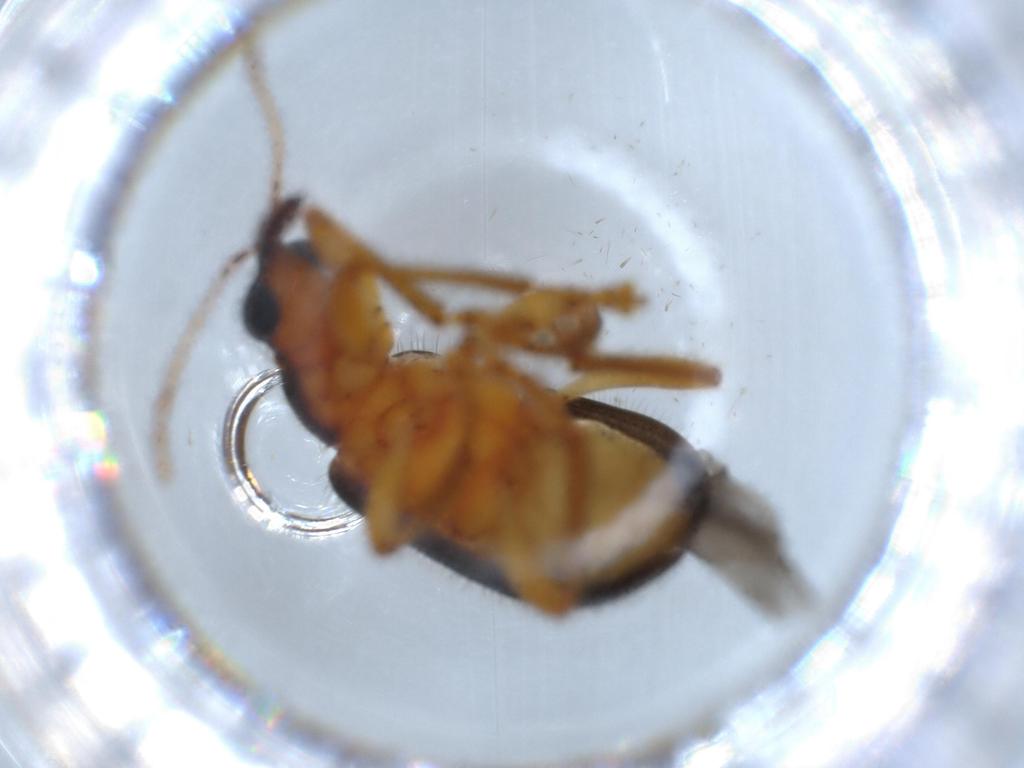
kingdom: Animalia
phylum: Arthropoda
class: Insecta
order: Coleoptera
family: Attelabidae
